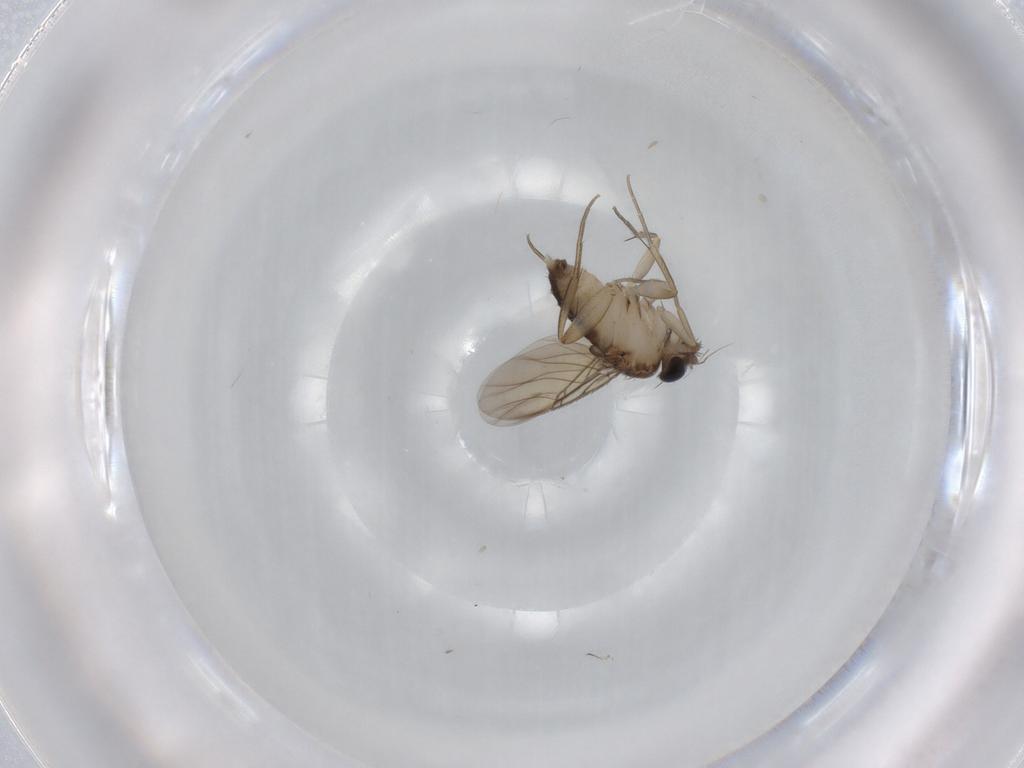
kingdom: Animalia
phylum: Arthropoda
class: Insecta
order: Diptera
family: Phoridae
